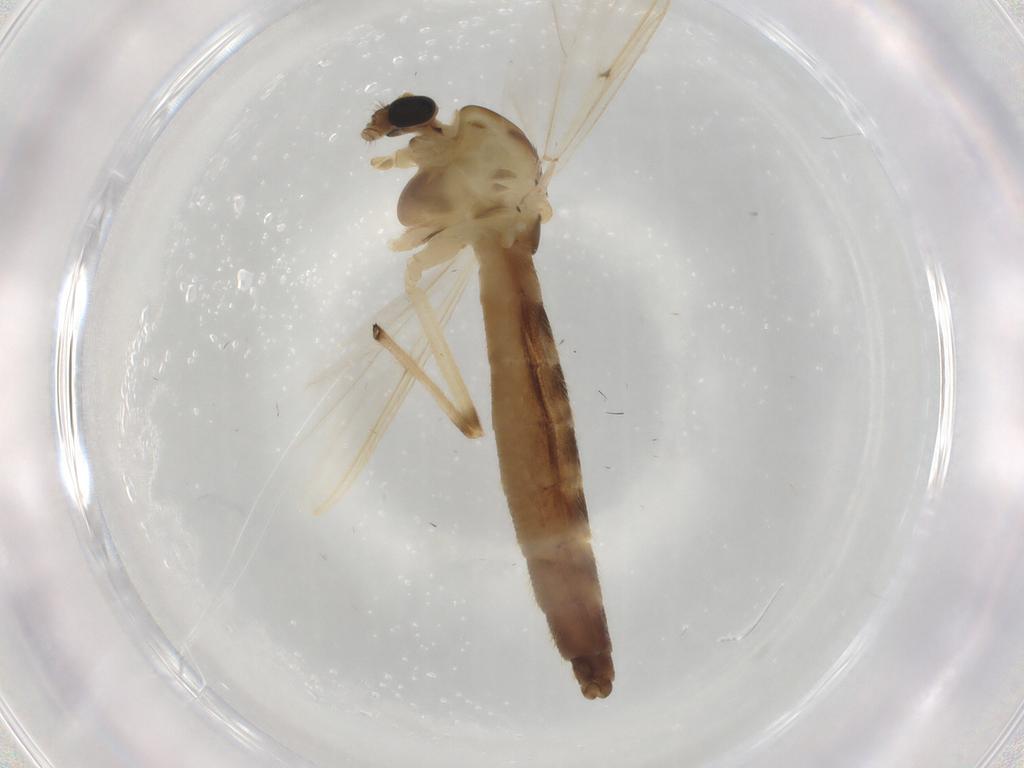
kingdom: Animalia
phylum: Arthropoda
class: Insecta
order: Diptera
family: Chironomidae
